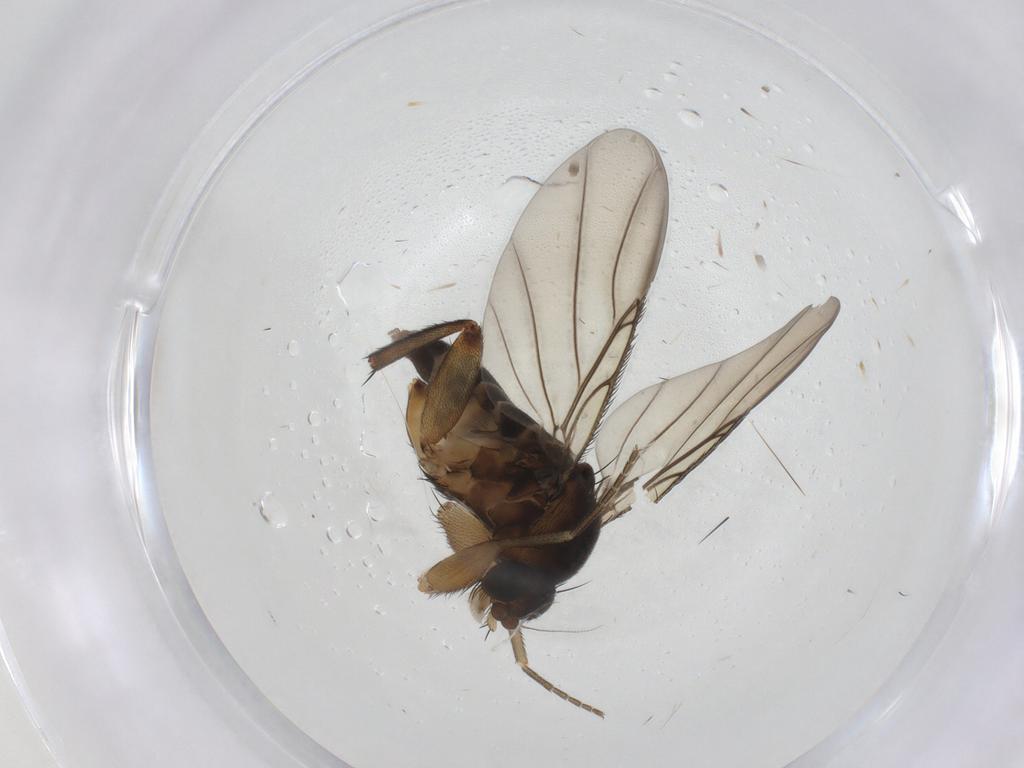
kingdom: Animalia
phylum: Arthropoda
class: Insecta
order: Diptera
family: Phoridae
